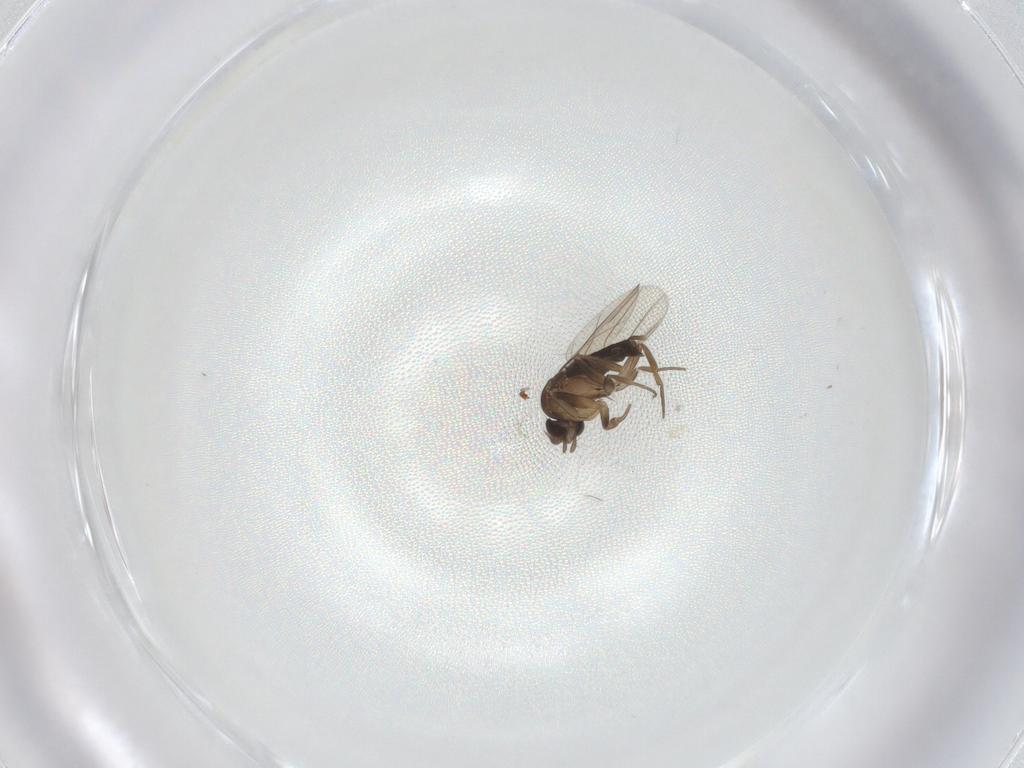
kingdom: Animalia
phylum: Arthropoda
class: Insecta
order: Diptera
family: Phoridae
